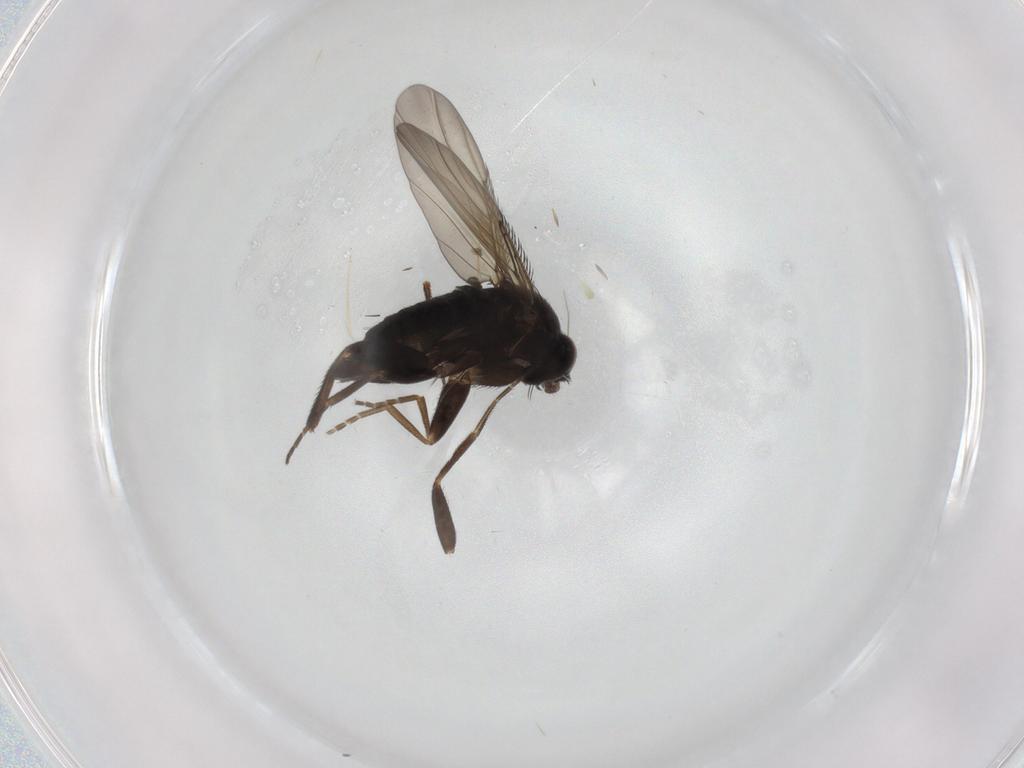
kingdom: Animalia
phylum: Arthropoda
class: Insecta
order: Diptera
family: Phoridae
